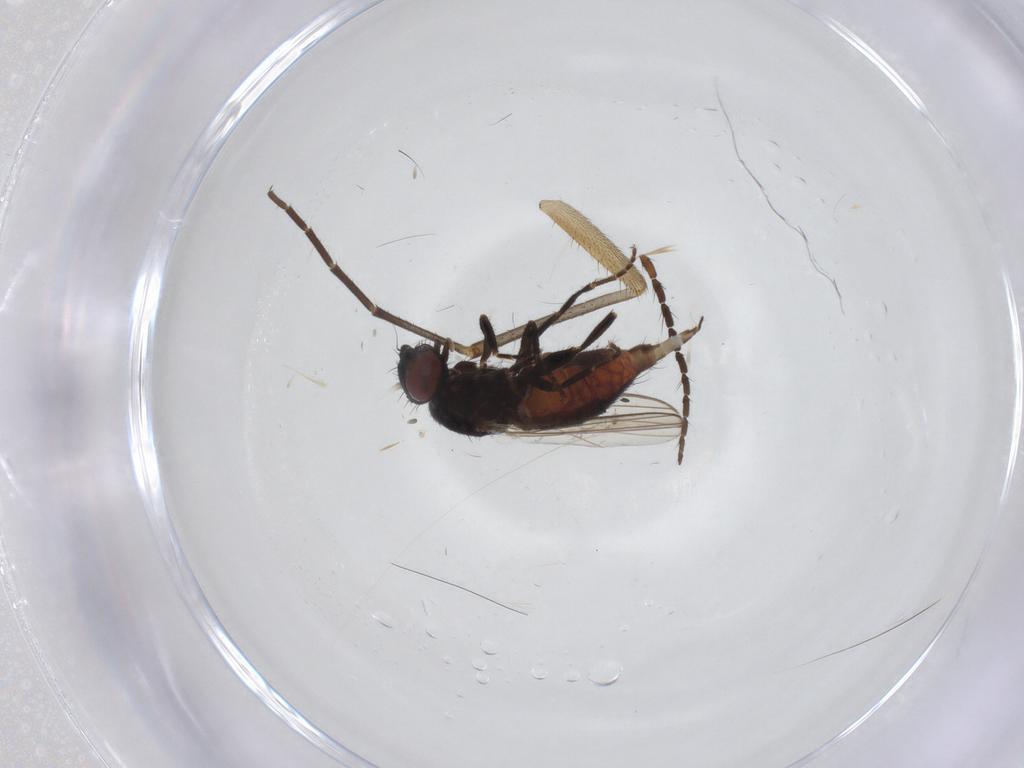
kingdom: Animalia
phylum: Arthropoda
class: Insecta
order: Diptera
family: Milichiidae
